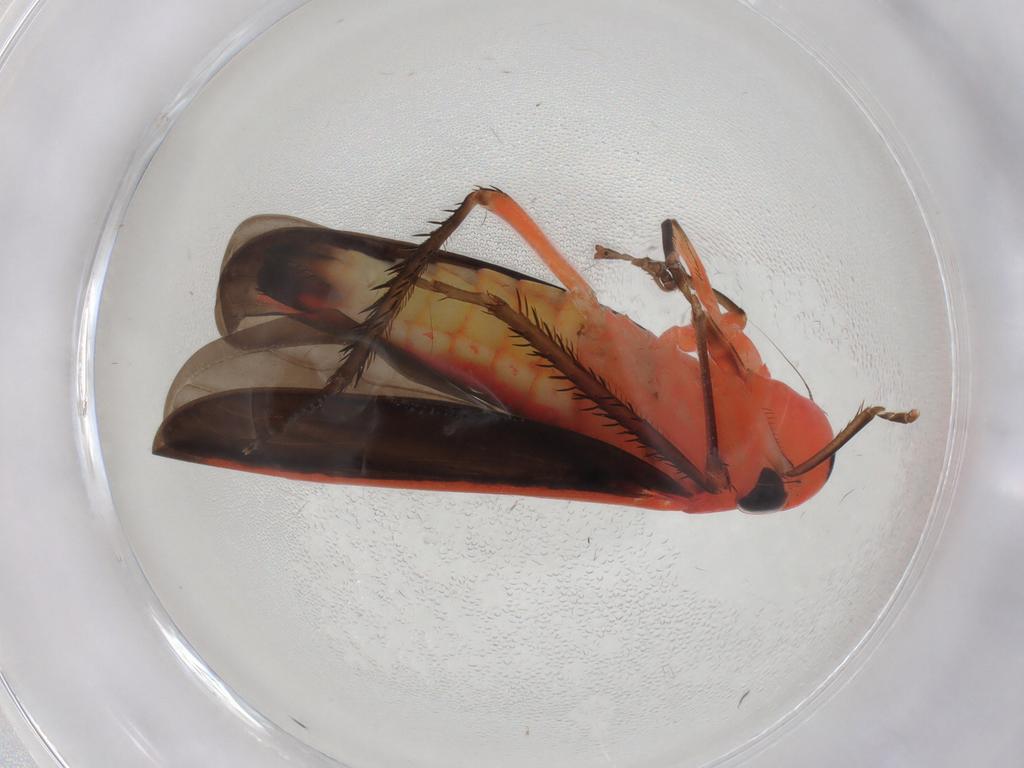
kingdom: Animalia
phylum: Arthropoda
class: Insecta
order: Hemiptera
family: Cicadellidae
